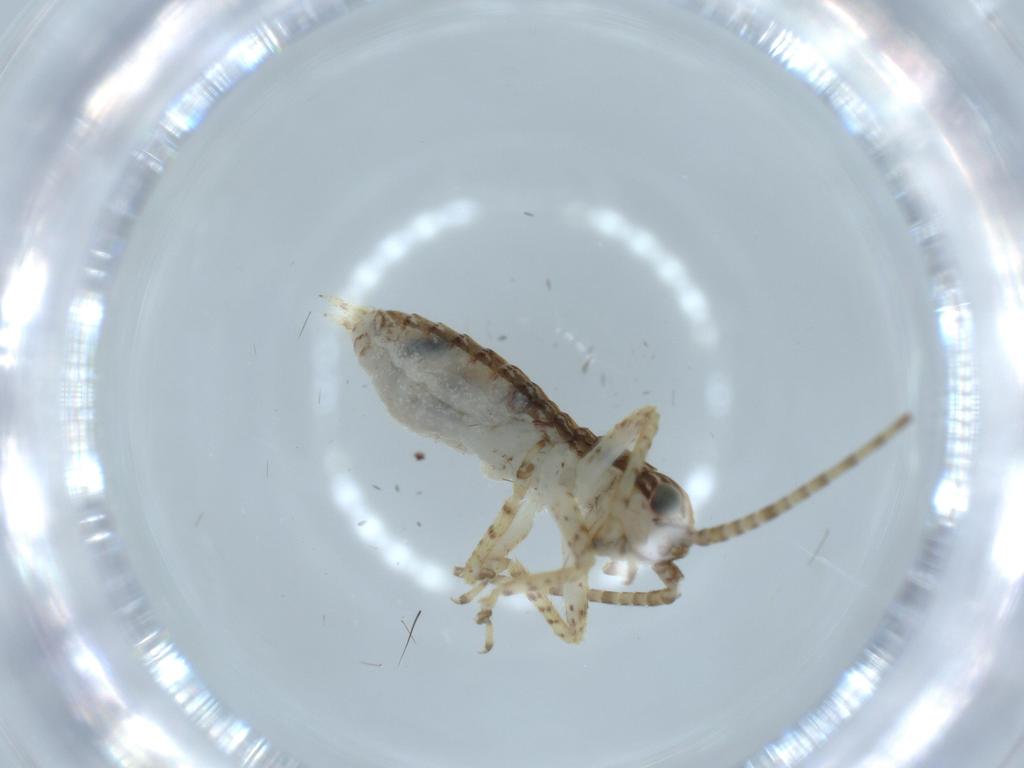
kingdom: Animalia
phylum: Arthropoda
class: Insecta
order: Orthoptera
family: Gryllidae
